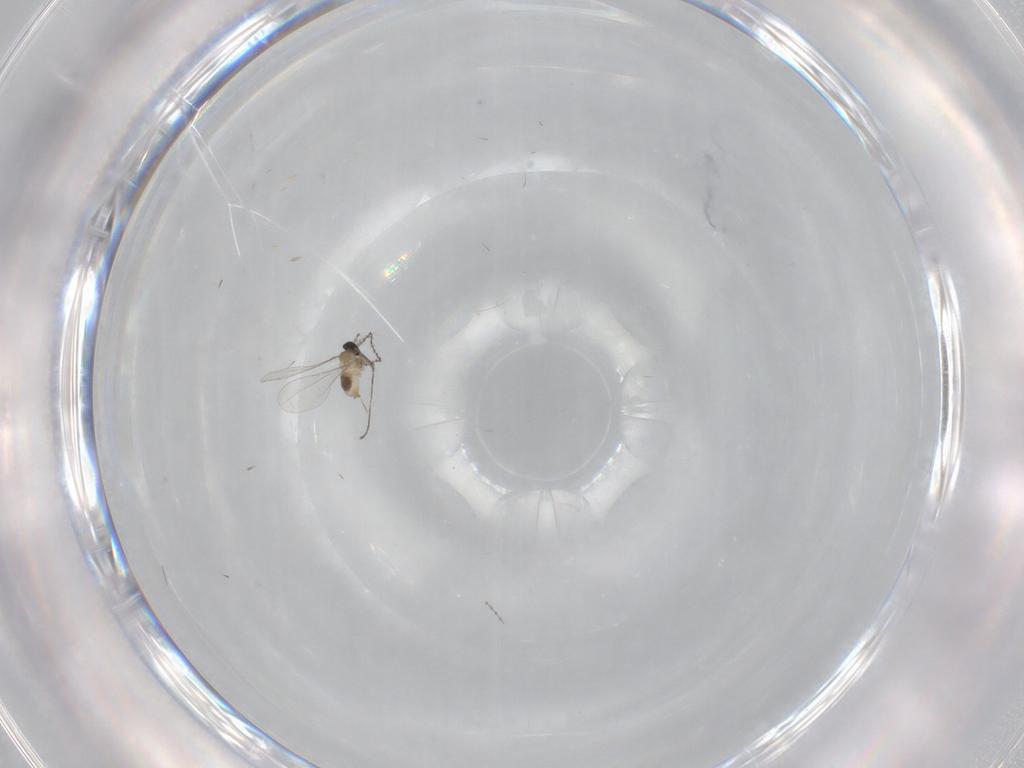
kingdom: Animalia
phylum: Arthropoda
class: Insecta
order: Diptera
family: Cecidomyiidae
